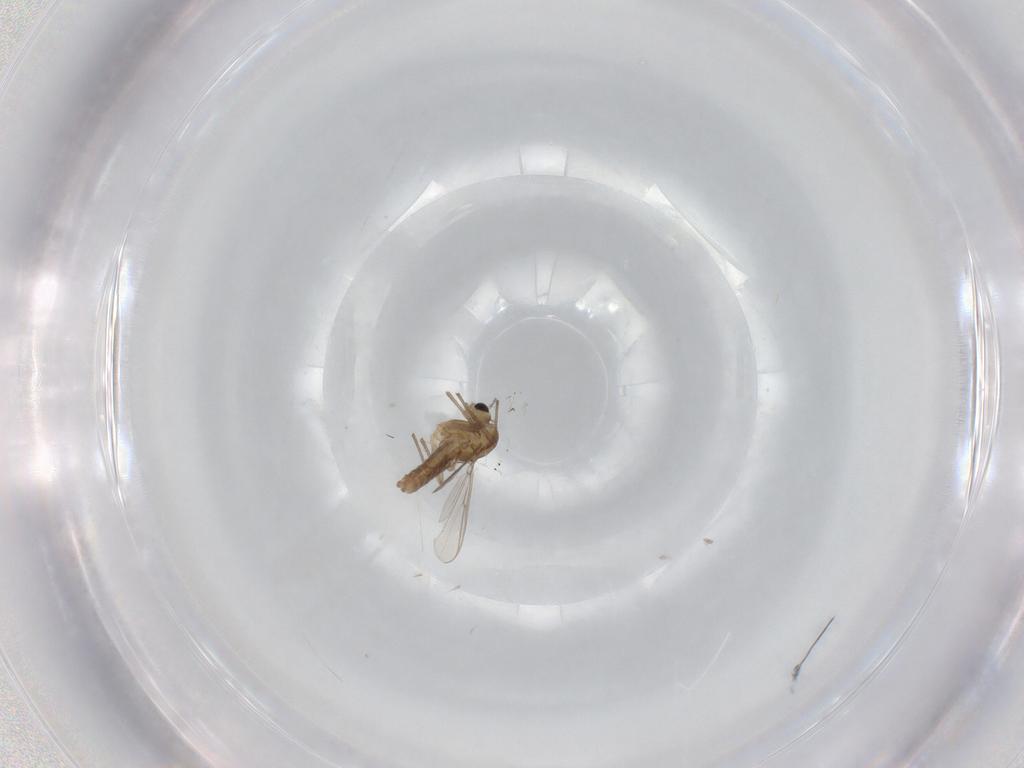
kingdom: Animalia
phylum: Arthropoda
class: Insecta
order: Diptera
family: Chironomidae
